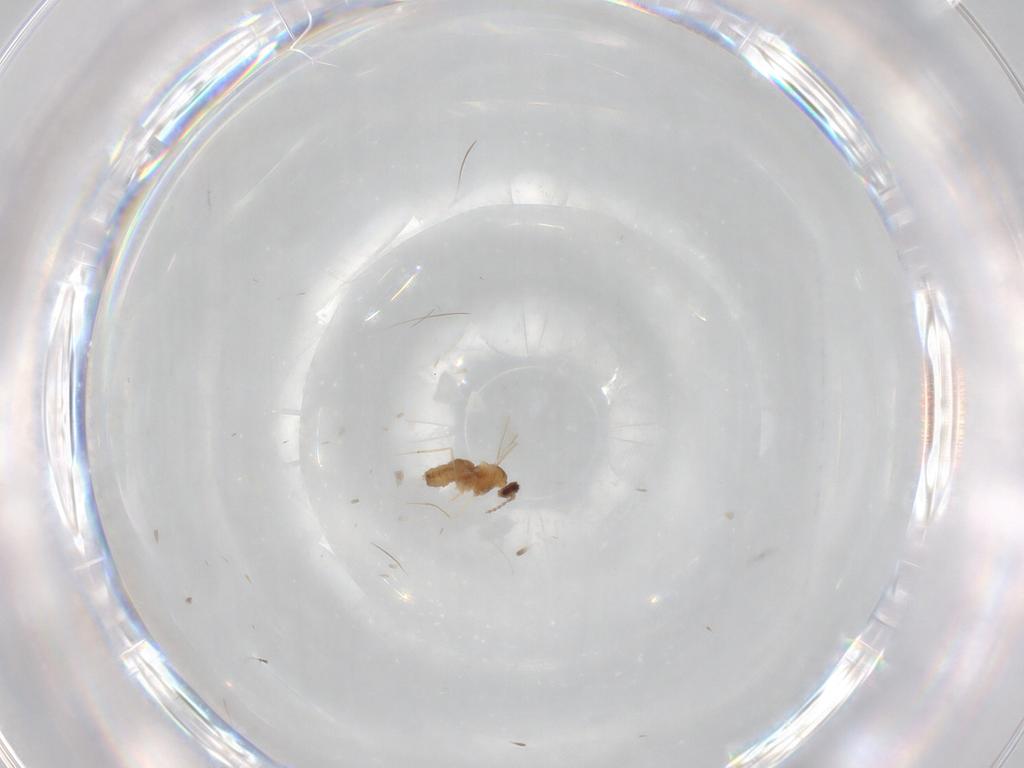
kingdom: Animalia
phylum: Arthropoda
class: Insecta
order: Diptera
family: Cecidomyiidae
